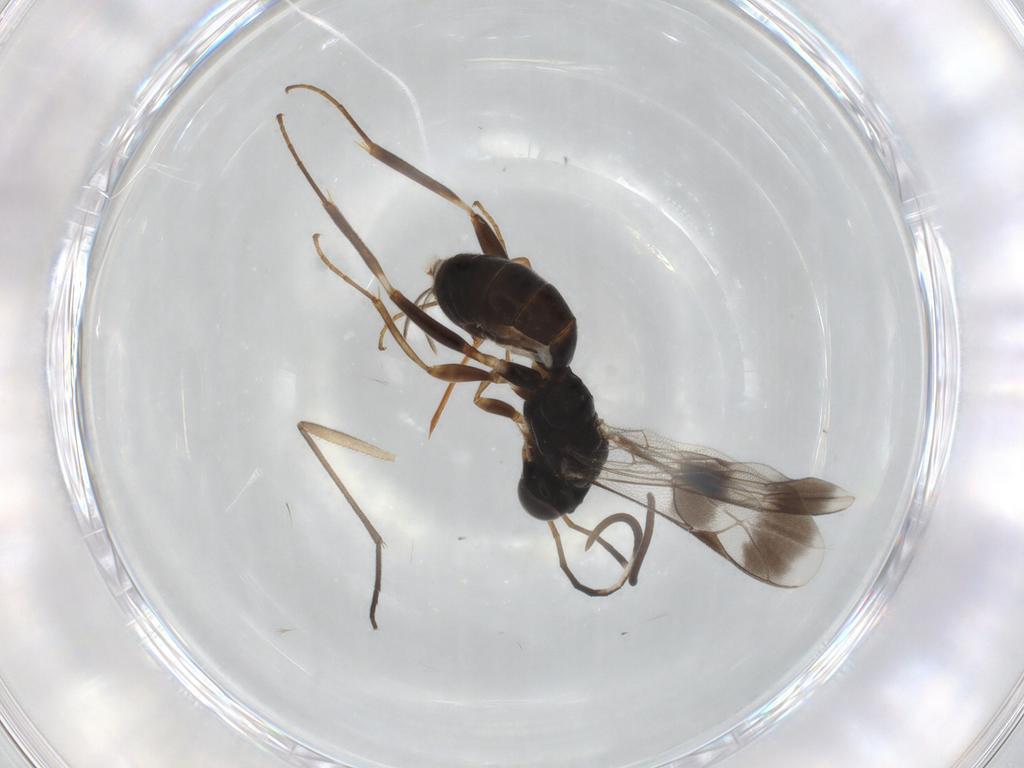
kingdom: Animalia
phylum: Arthropoda
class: Insecta
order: Hymenoptera
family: Ichneumonidae
